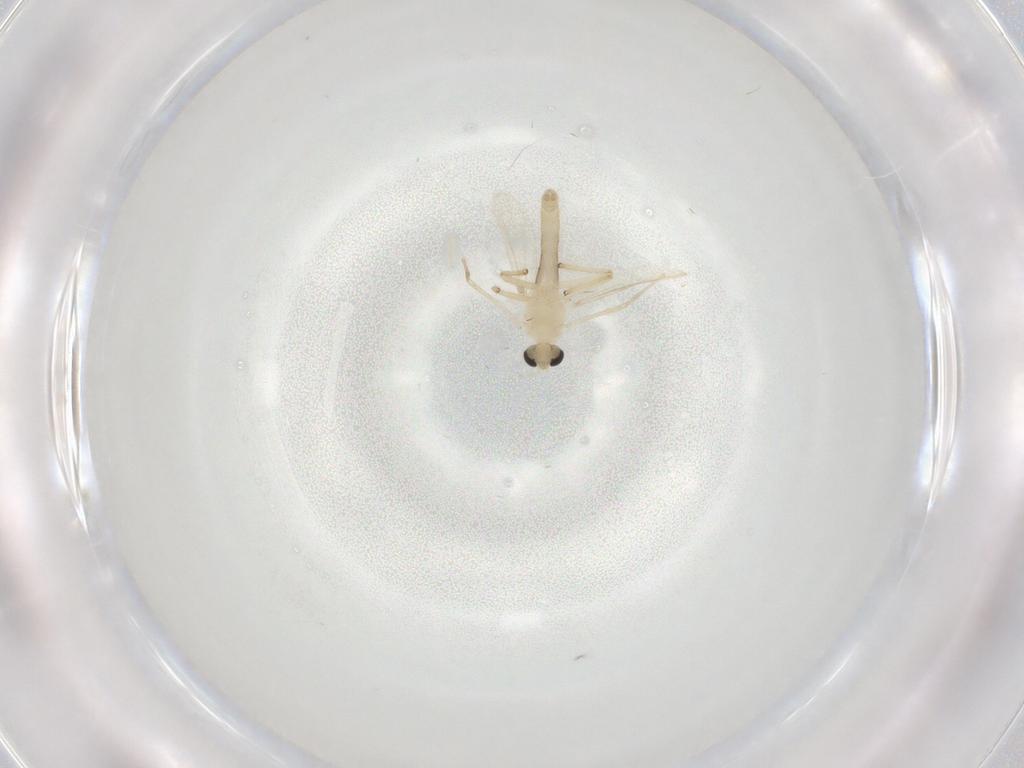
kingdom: Animalia
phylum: Arthropoda
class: Insecta
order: Diptera
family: Chironomidae
